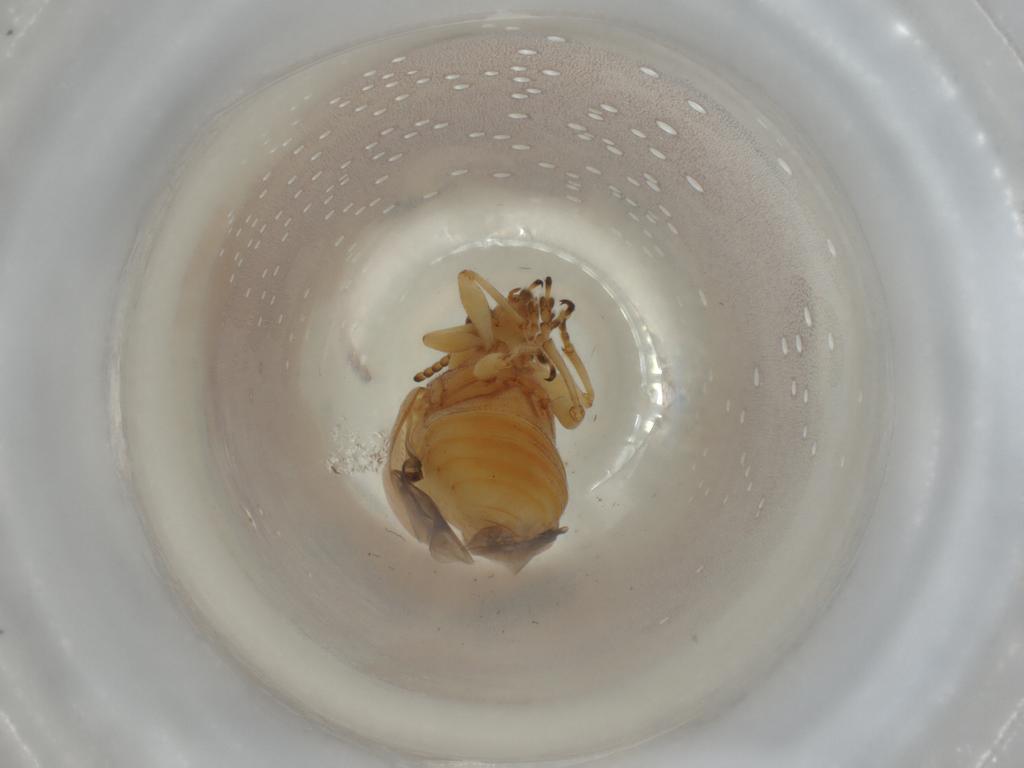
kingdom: Animalia
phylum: Arthropoda
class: Insecta
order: Coleoptera
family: Chrysomelidae
